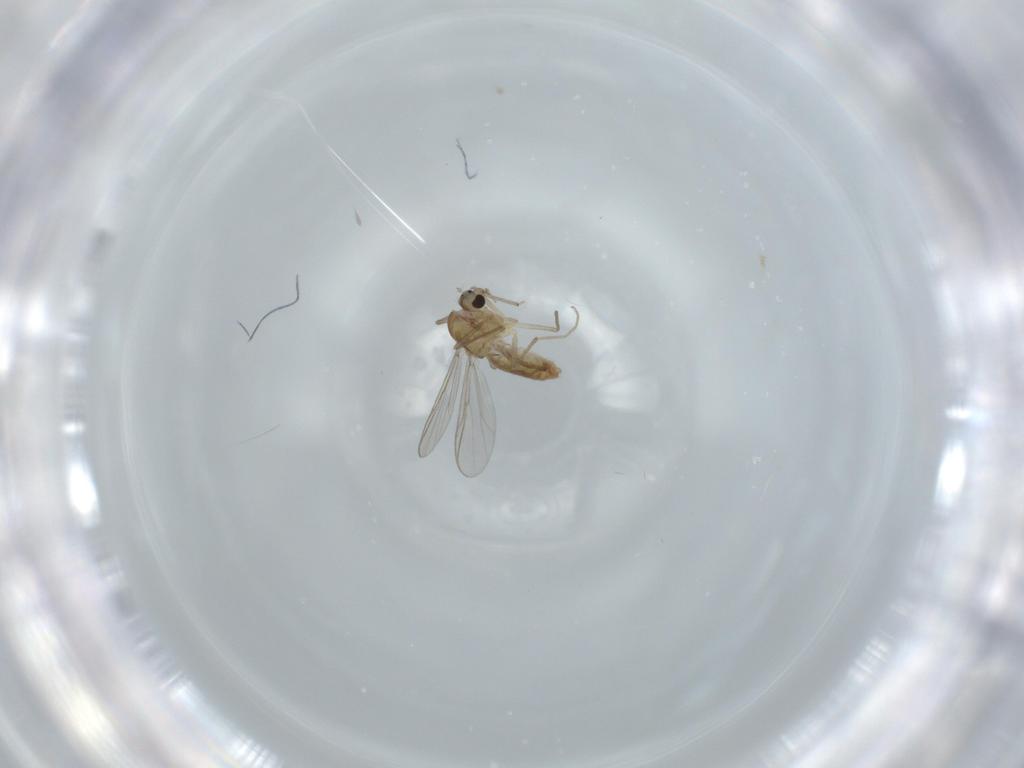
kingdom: Animalia
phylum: Arthropoda
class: Insecta
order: Diptera
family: Chironomidae
